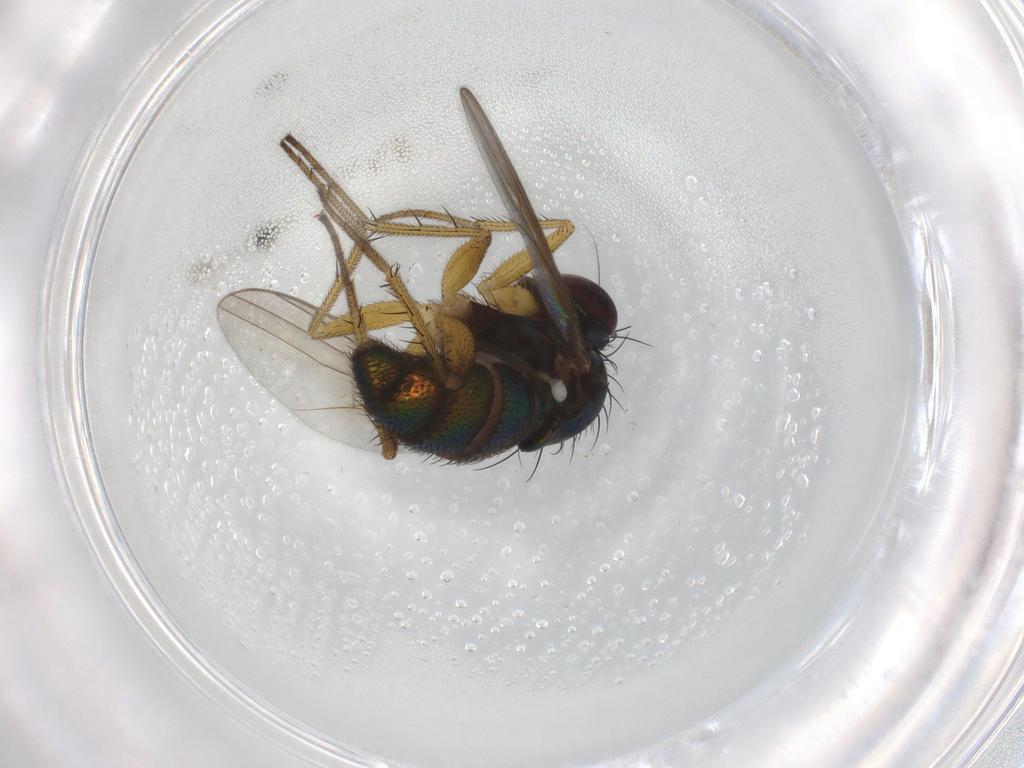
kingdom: Animalia
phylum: Arthropoda
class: Insecta
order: Diptera
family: Dolichopodidae
